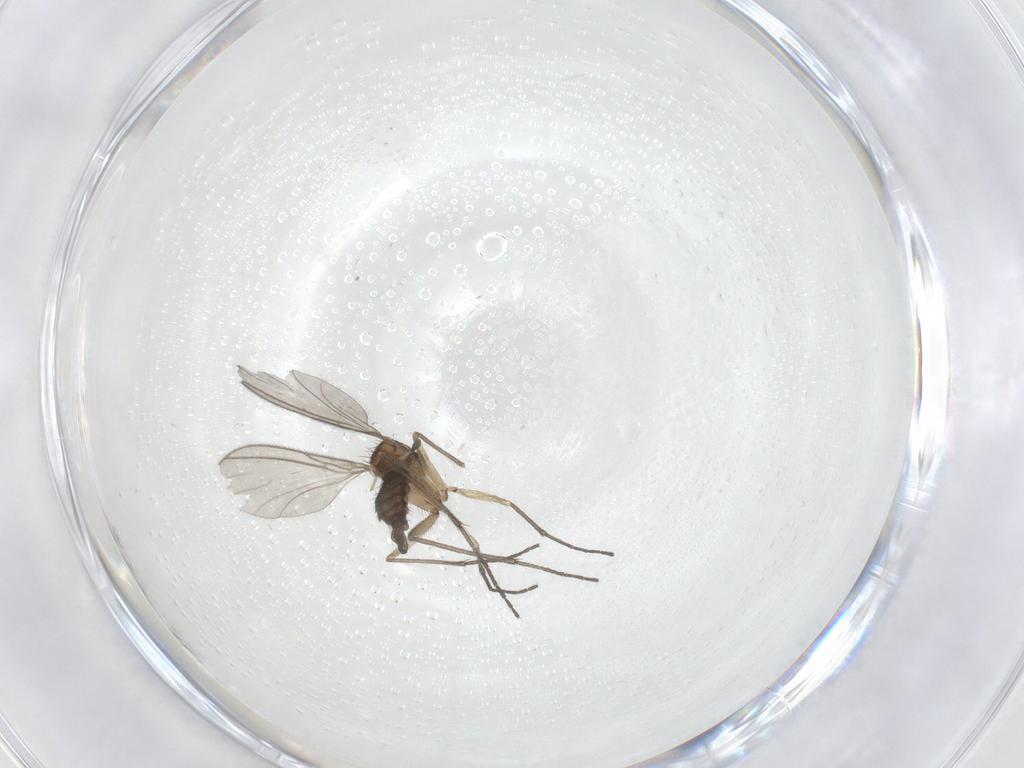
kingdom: Animalia
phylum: Arthropoda
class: Insecta
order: Diptera
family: Sciaridae
